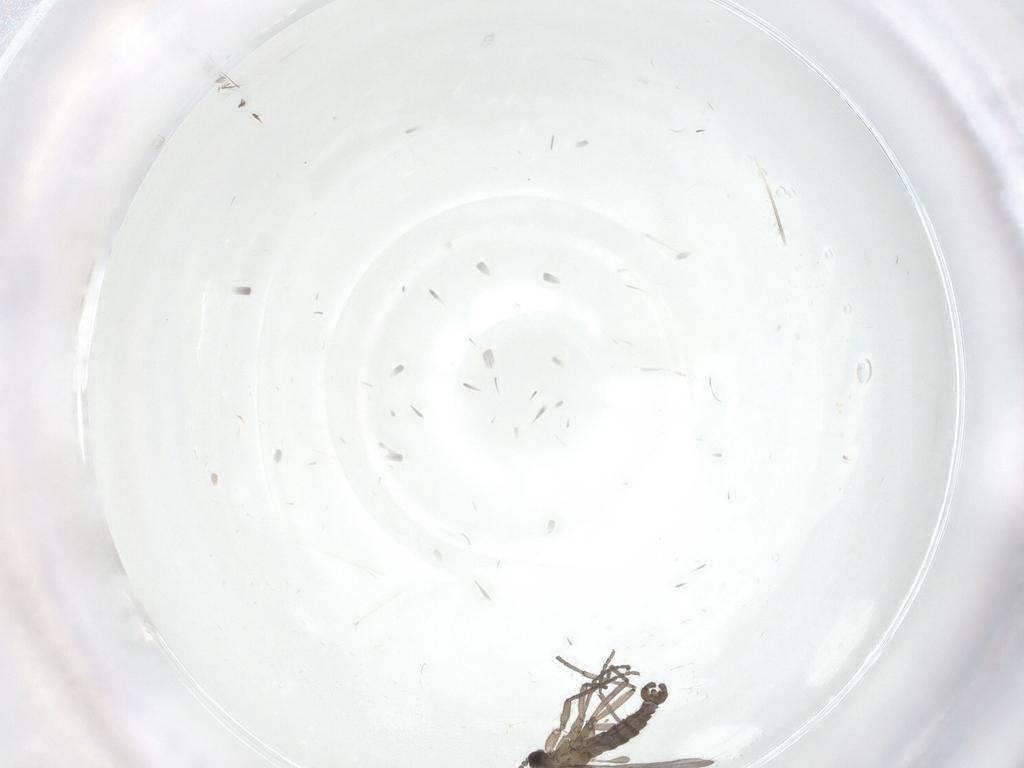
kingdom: Animalia
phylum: Arthropoda
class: Insecta
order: Diptera
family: Sciaridae
